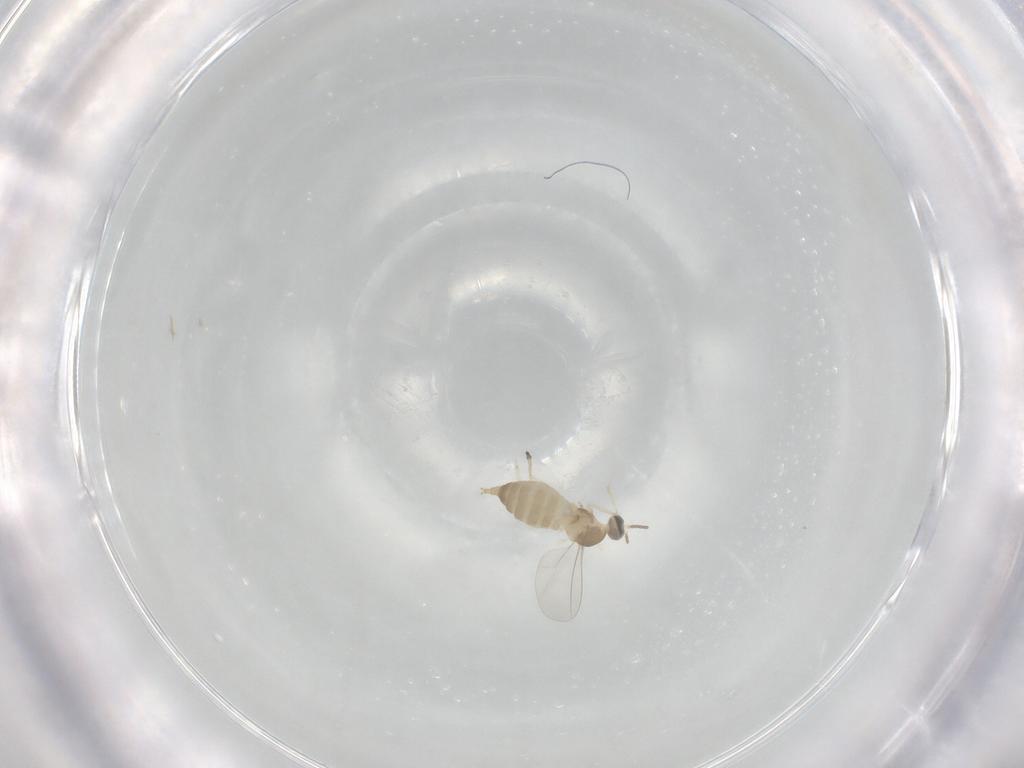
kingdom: Animalia
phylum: Arthropoda
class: Insecta
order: Diptera
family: Cecidomyiidae
